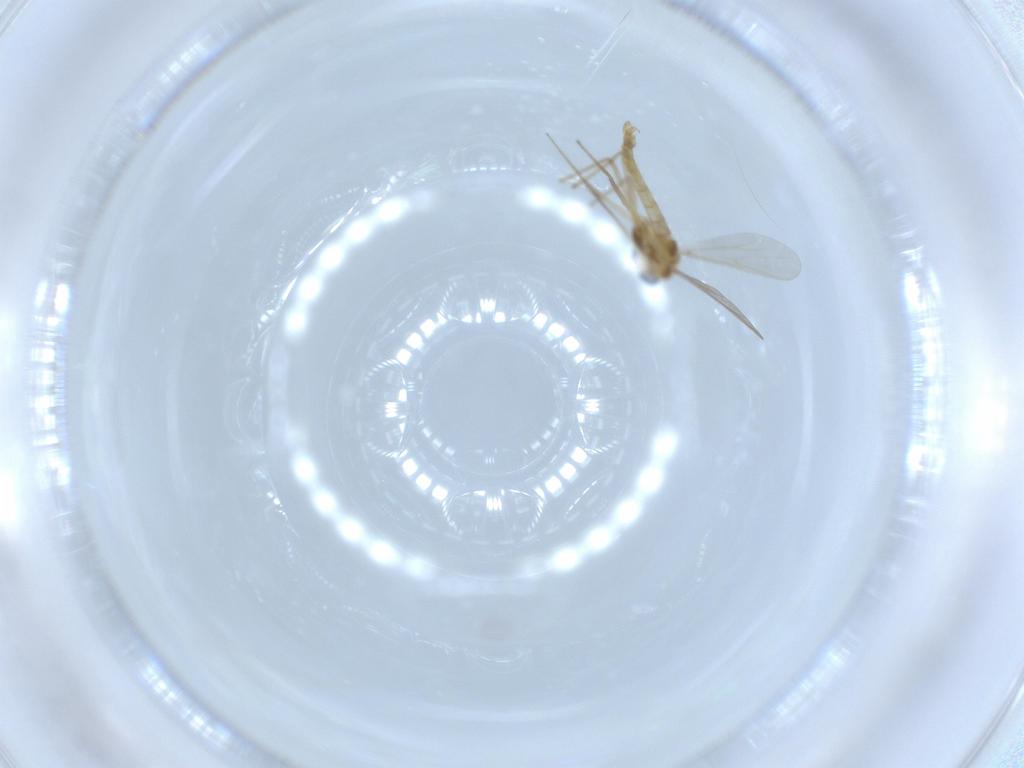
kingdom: Animalia
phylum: Arthropoda
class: Insecta
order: Diptera
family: Chironomidae
